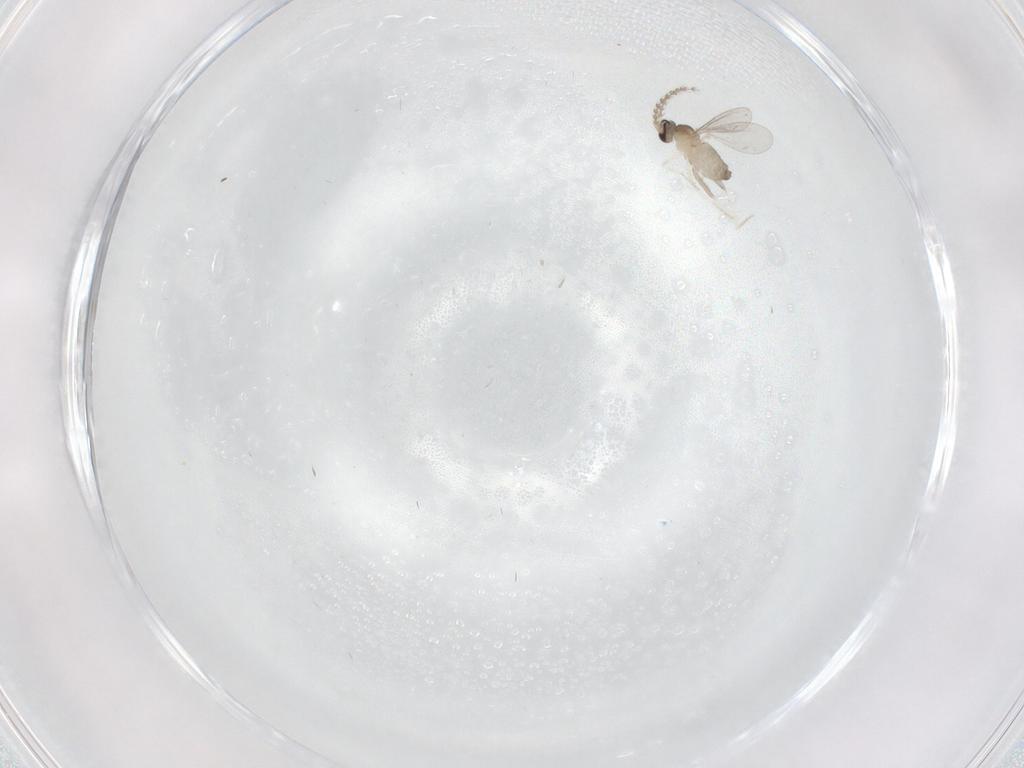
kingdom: Animalia
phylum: Arthropoda
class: Insecta
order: Diptera
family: Cecidomyiidae
